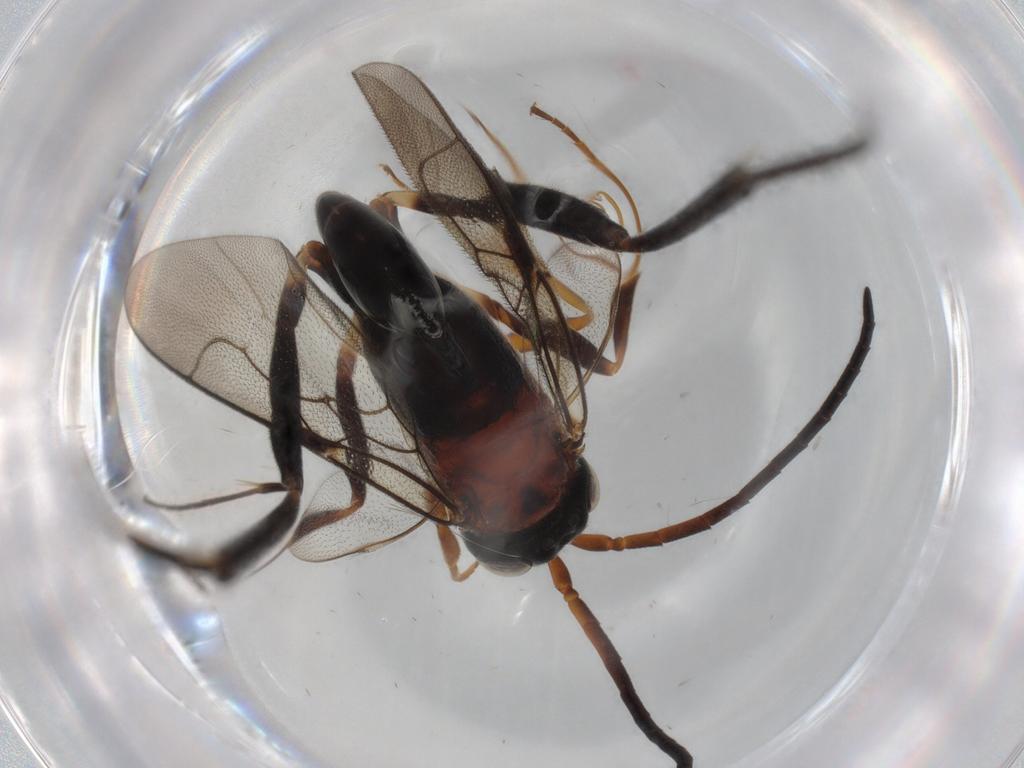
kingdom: Animalia
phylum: Arthropoda
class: Insecta
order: Hymenoptera
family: Evaniidae
